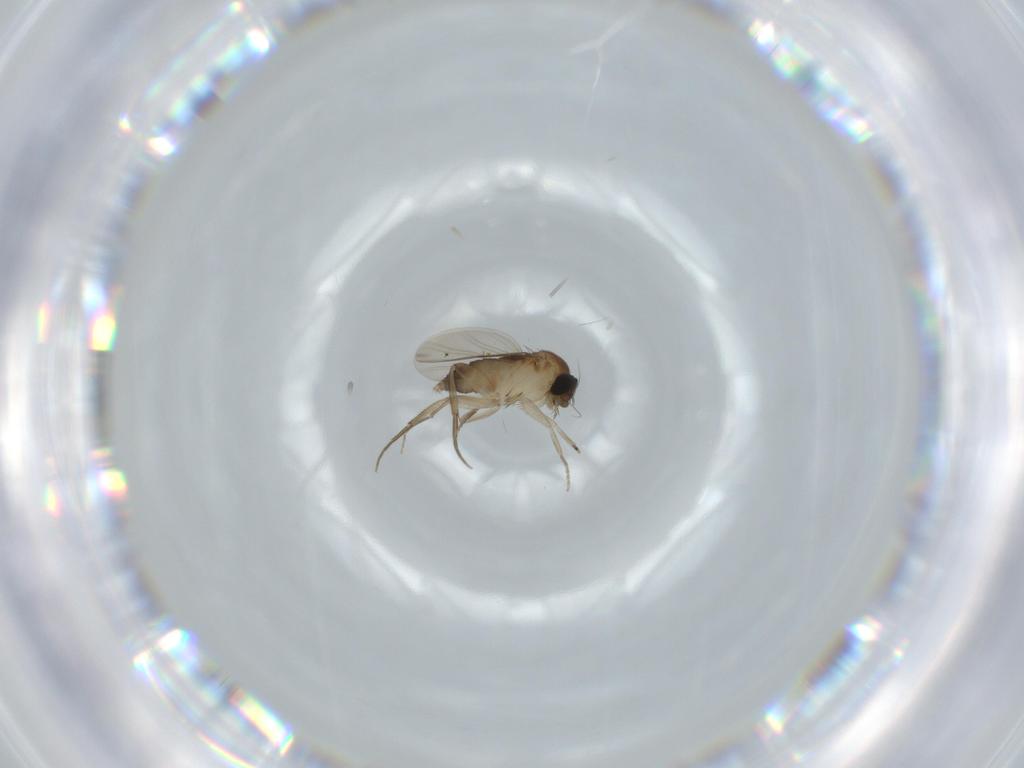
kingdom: Animalia
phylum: Arthropoda
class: Insecta
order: Diptera
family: Phoridae
